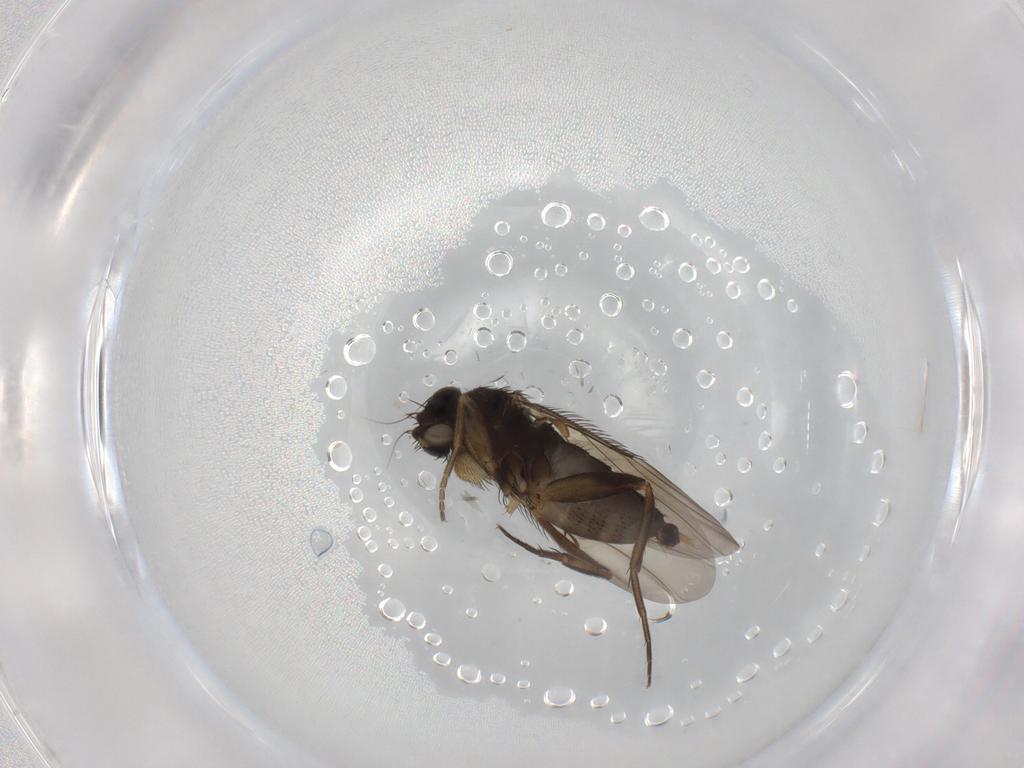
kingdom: Animalia
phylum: Arthropoda
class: Insecta
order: Diptera
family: Phoridae
